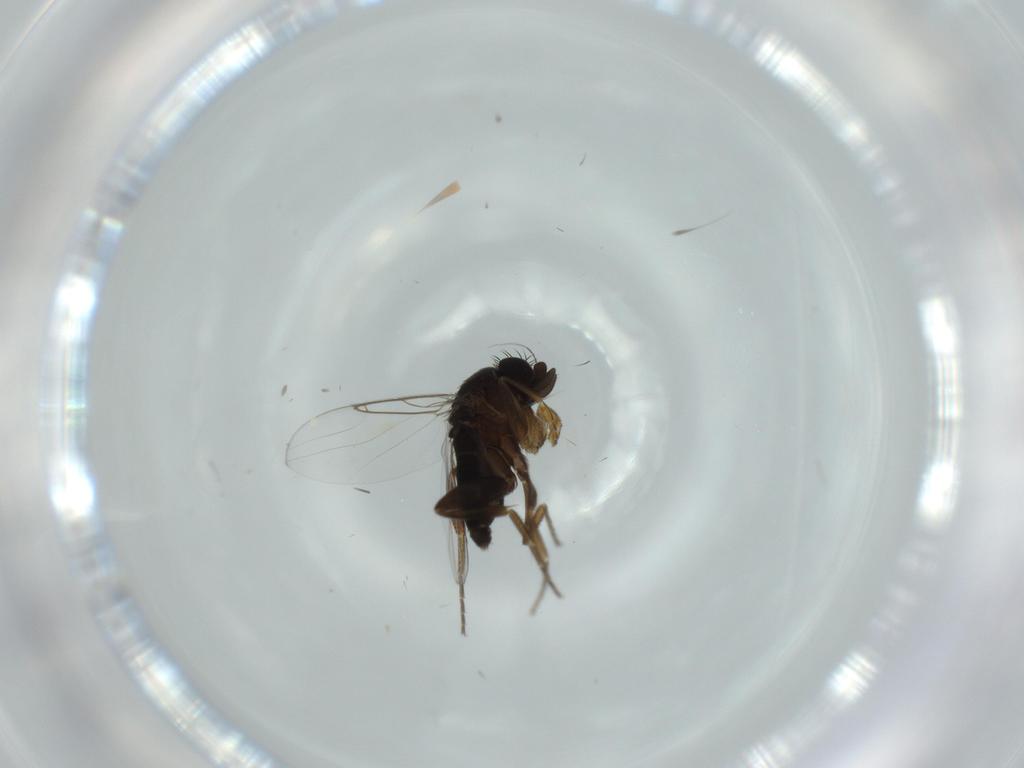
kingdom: Animalia
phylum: Arthropoda
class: Insecta
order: Diptera
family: Phoridae
